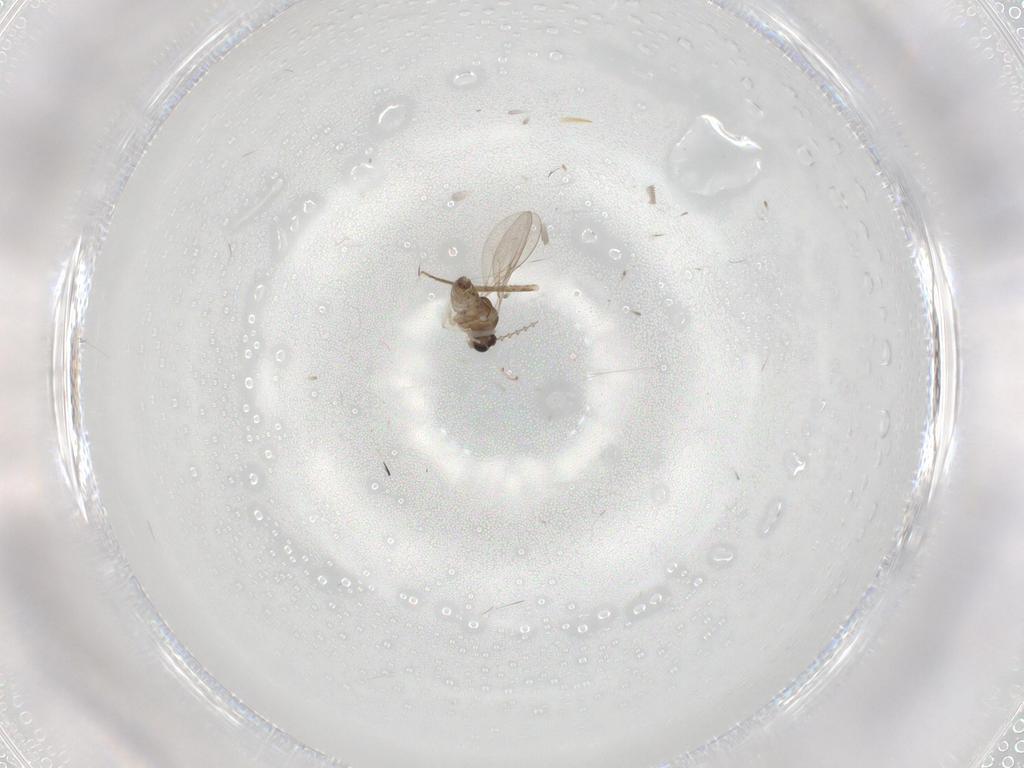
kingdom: Animalia
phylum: Arthropoda
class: Insecta
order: Diptera
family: Cecidomyiidae
